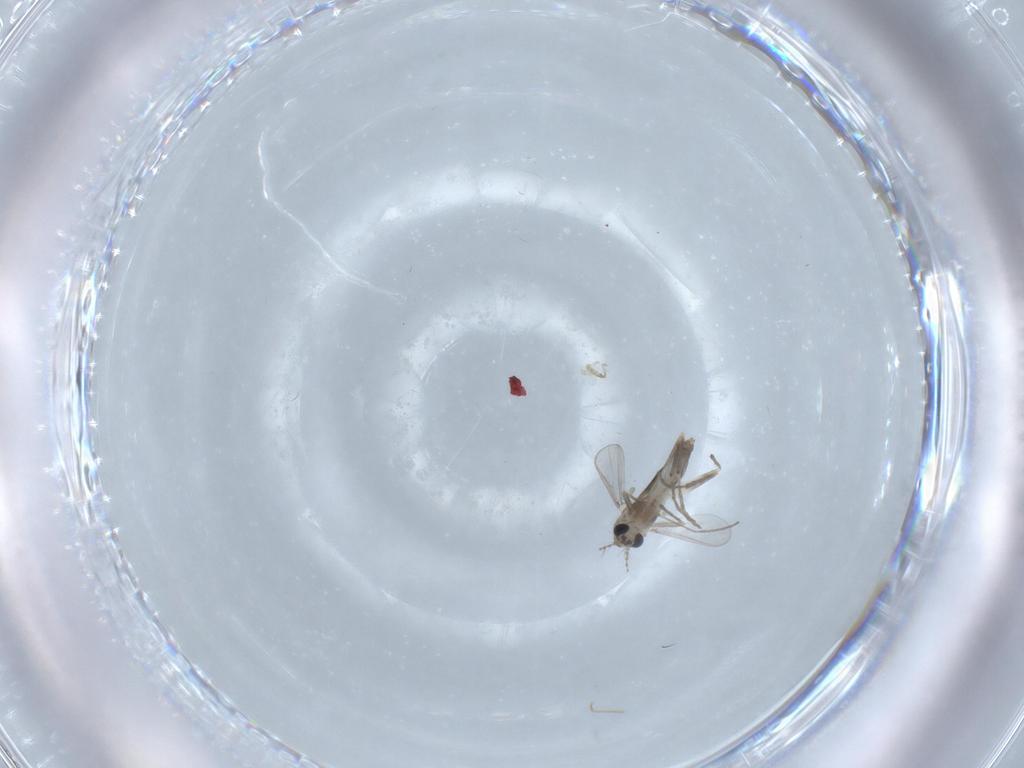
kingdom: Animalia
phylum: Arthropoda
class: Insecta
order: Diptera
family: Chironomidae
